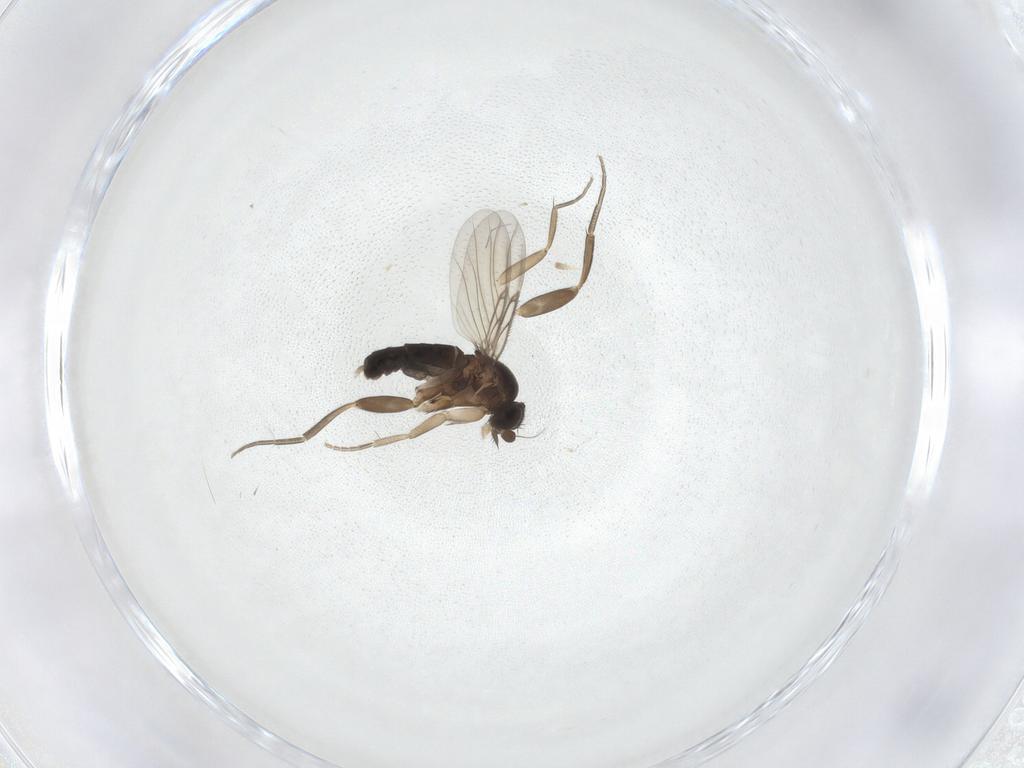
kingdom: Animalia
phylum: Arthropoda
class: Insecta
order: Diptera
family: Phoridae
